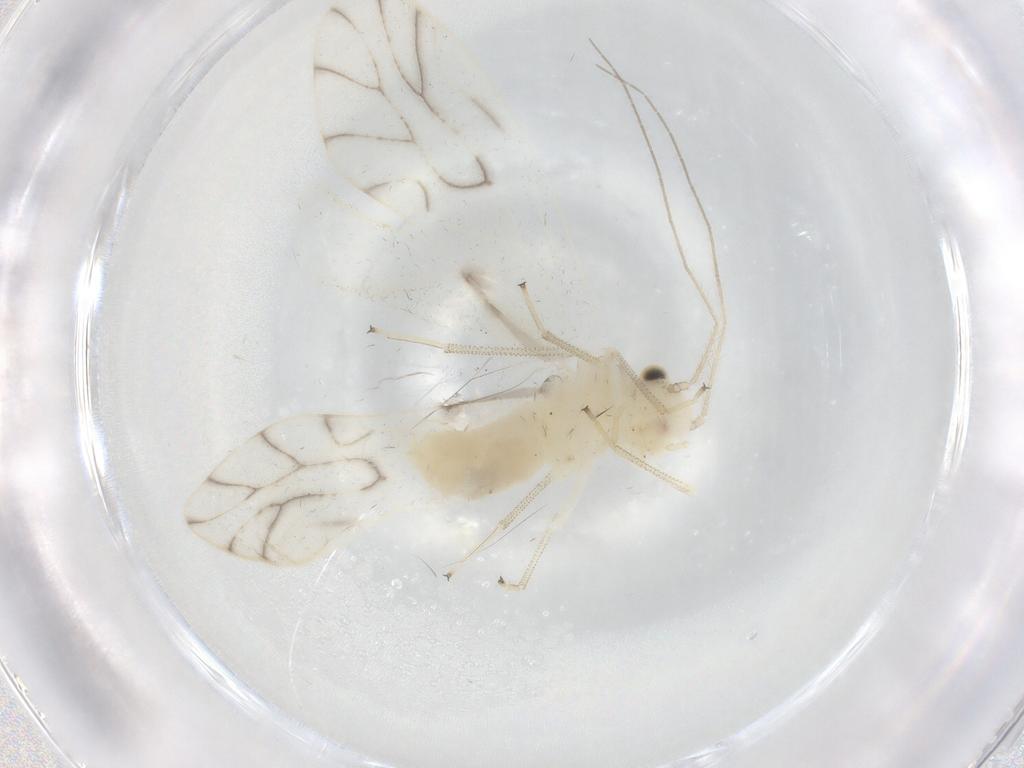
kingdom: Animalia
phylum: Arthropoda
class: Insecta
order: Psocodea
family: Caeciliusidae
